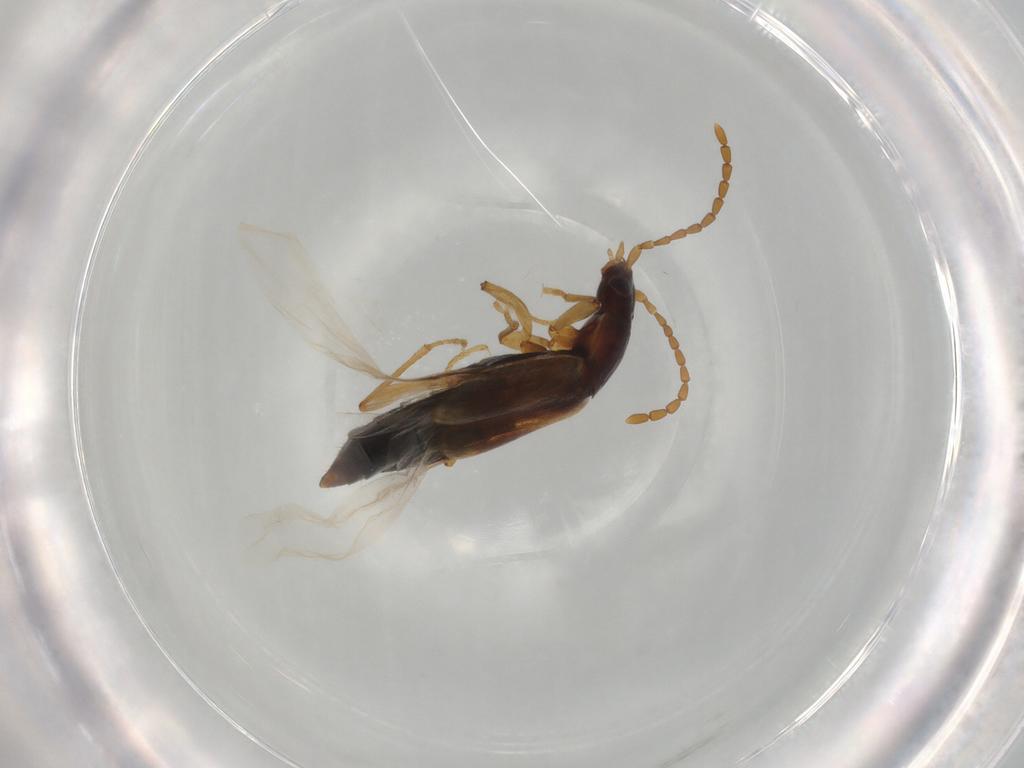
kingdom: Animalia
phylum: Arthropoda
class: Insecta
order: Coleoptera
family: Staphylinidae
